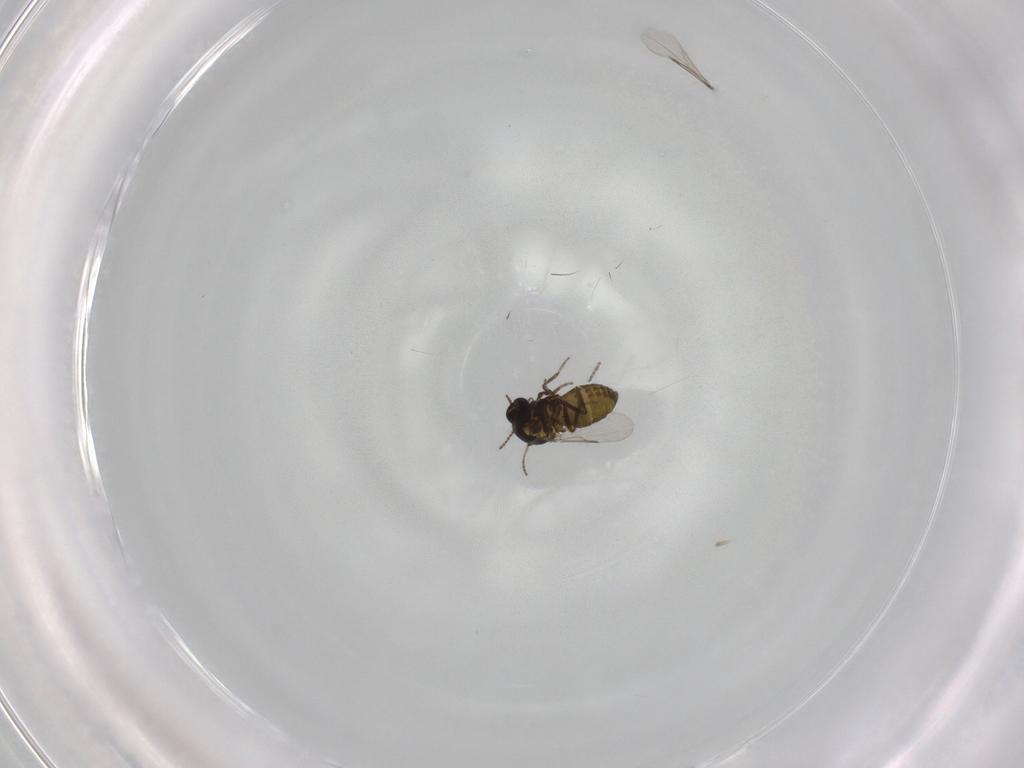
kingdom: Animalia
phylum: Arthropoda
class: Insecta
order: Diptera
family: Ceratopogonidae
